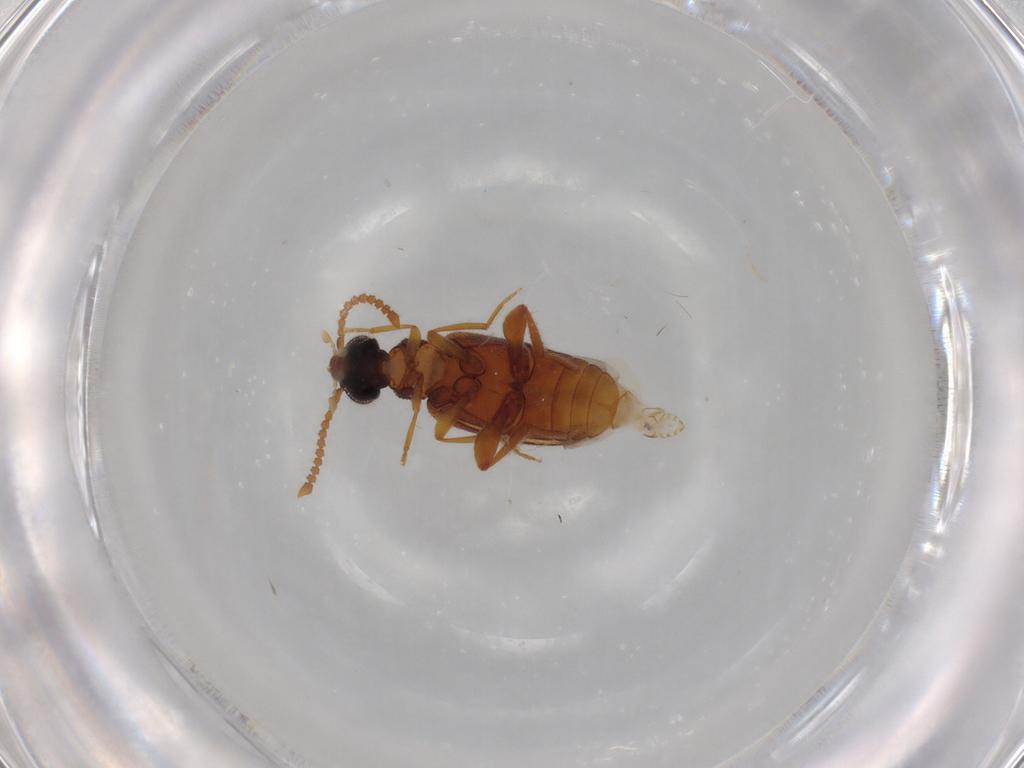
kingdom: Animalia
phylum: Arthropoda
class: Insecta
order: Coleoptera
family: Aderidae
